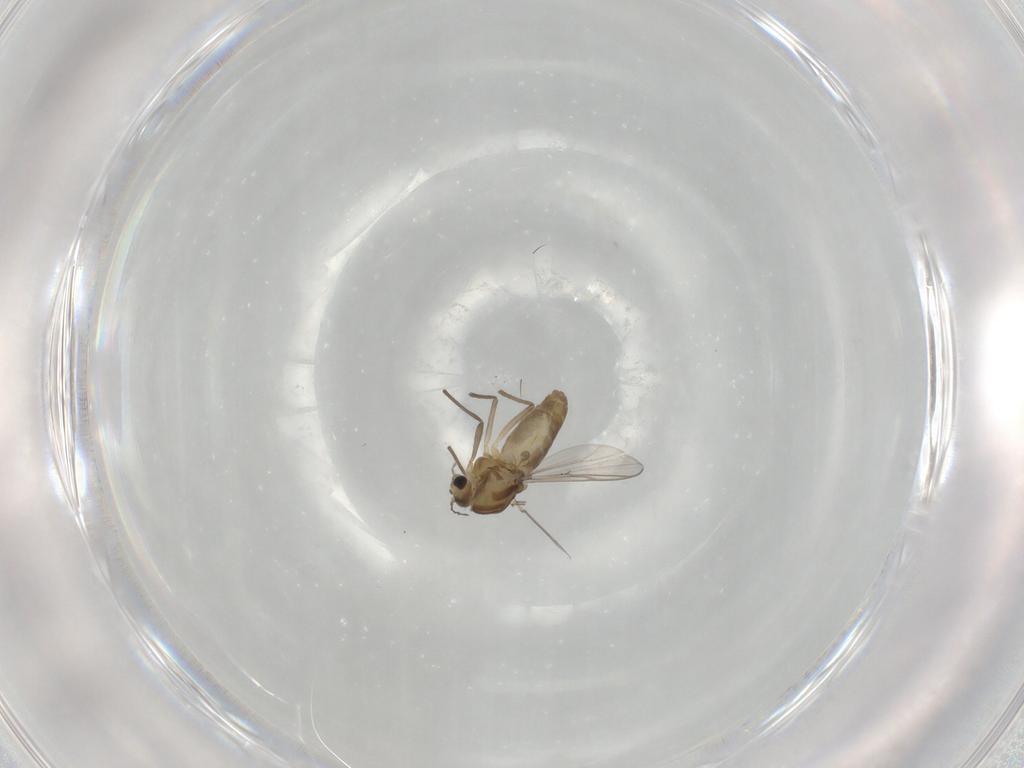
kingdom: Animalia
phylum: Arthropoda
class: Insecta
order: Diptera
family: Chironomidae
